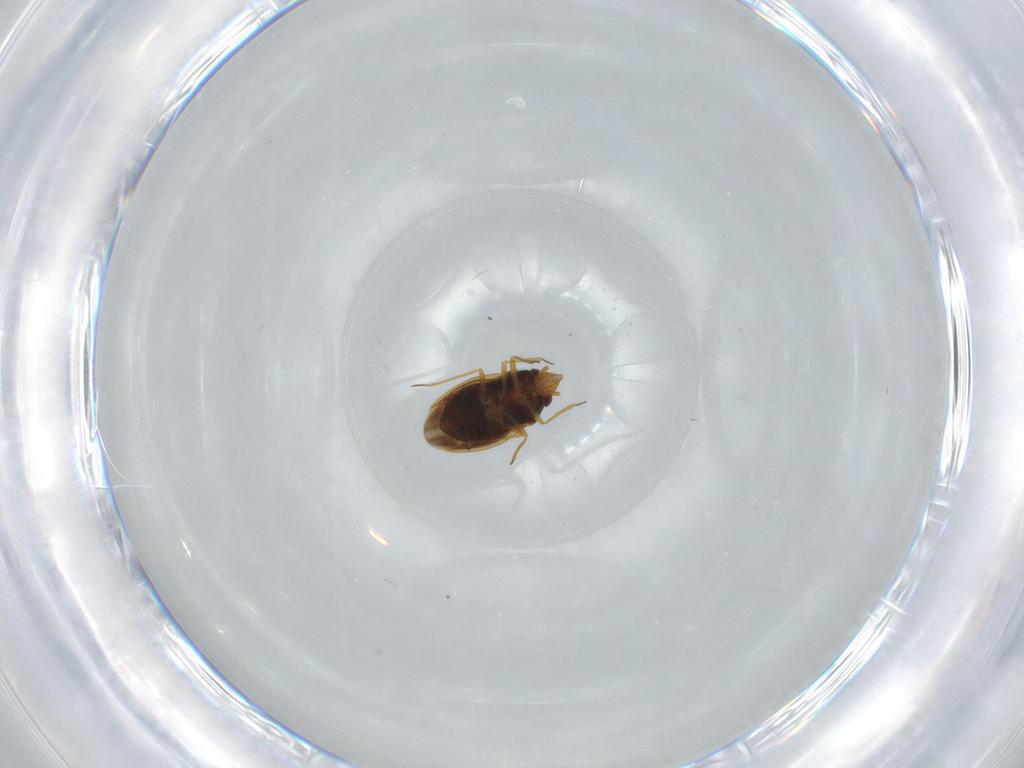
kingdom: Animalia
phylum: Arthropoda
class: Insecta
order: Hemiptera
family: Schizopteridae
